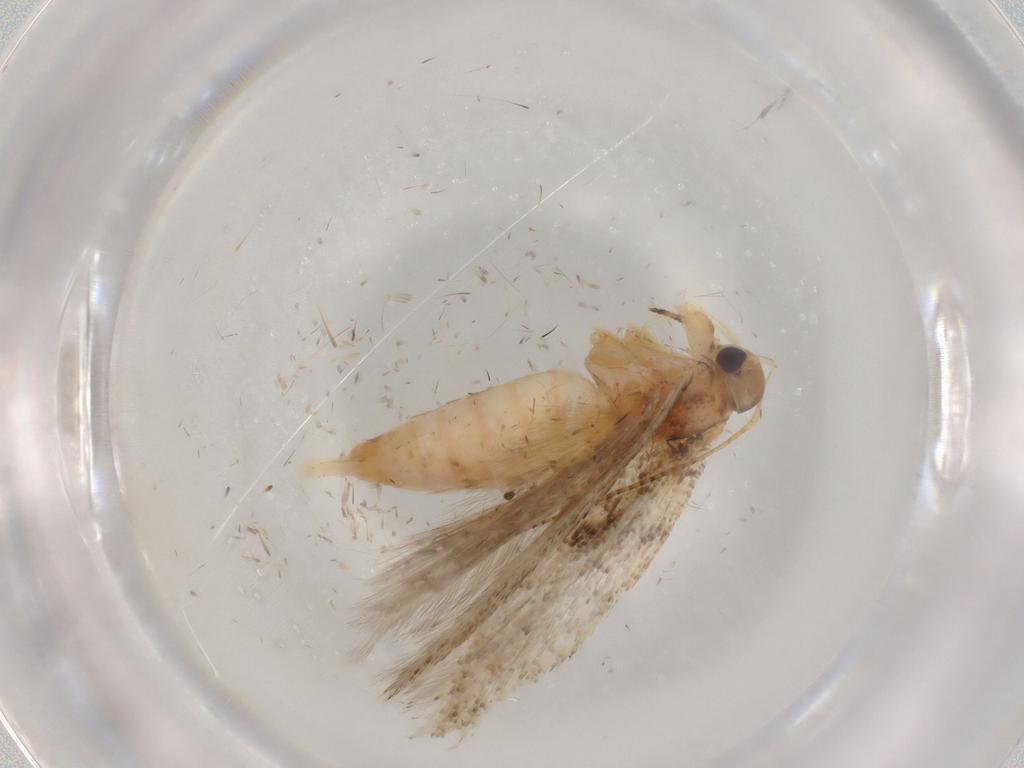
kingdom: Animalia
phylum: Arthropoda
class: Insecta
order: Lepidoptera
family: Gelechiidae
